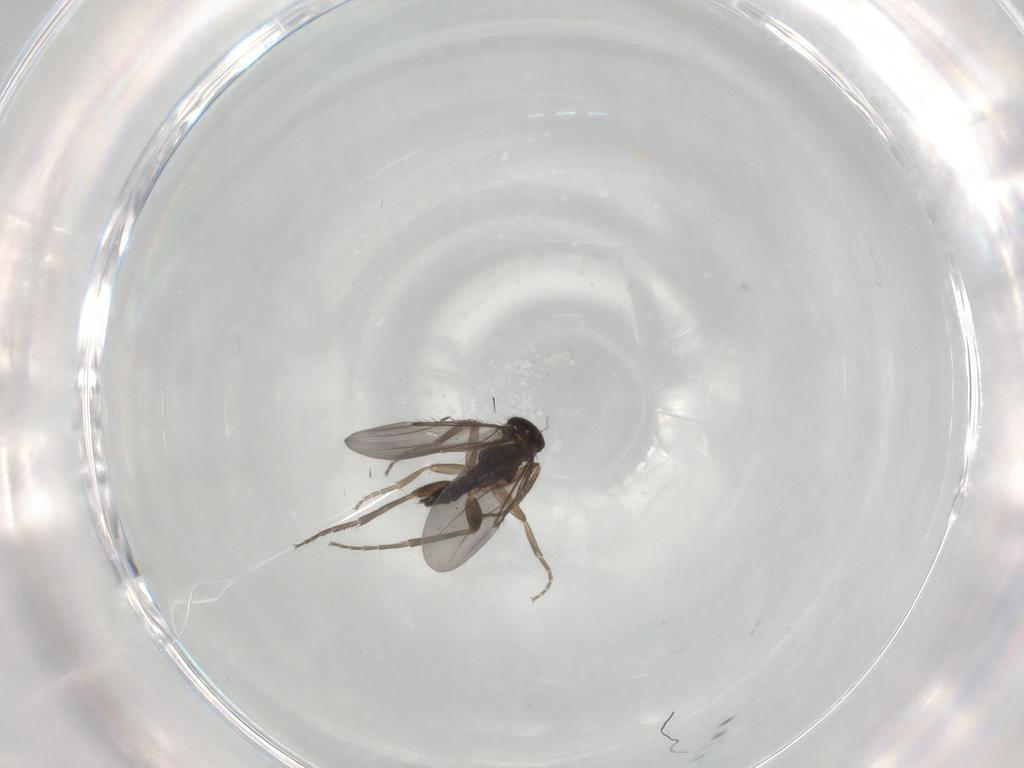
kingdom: Animalia
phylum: Arthropoda
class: Insecta
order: Diptera
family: Phoridae
